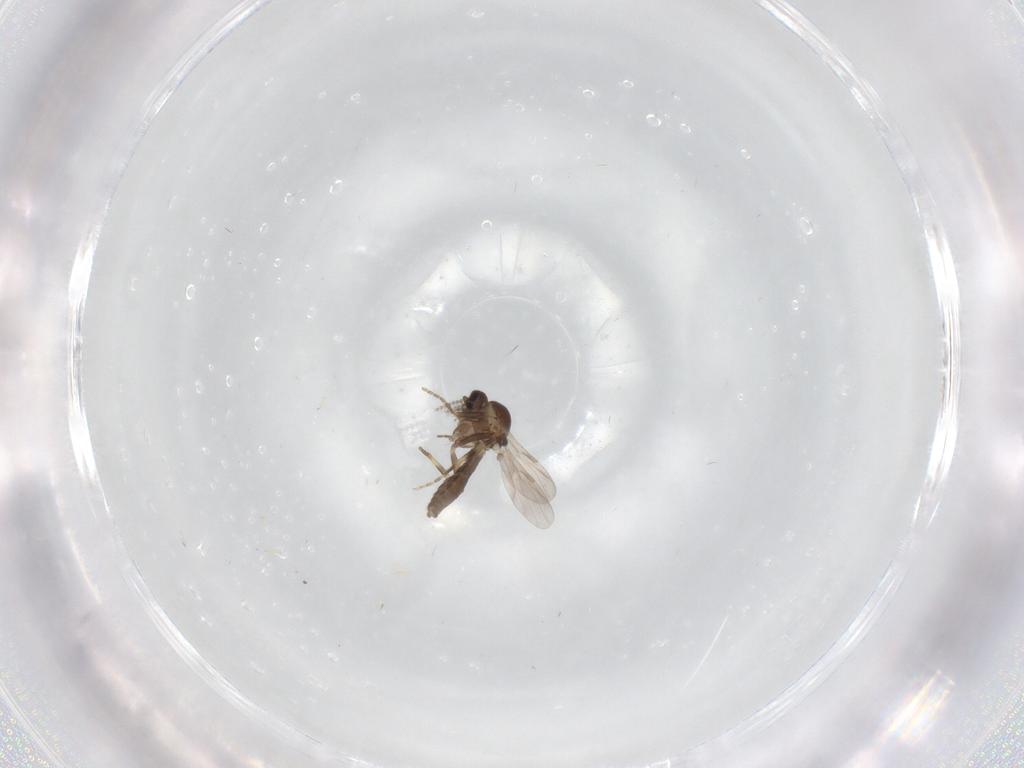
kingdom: Animalia
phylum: Arthropoda
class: Insecta
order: Diptera
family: Ceratopogonidae
